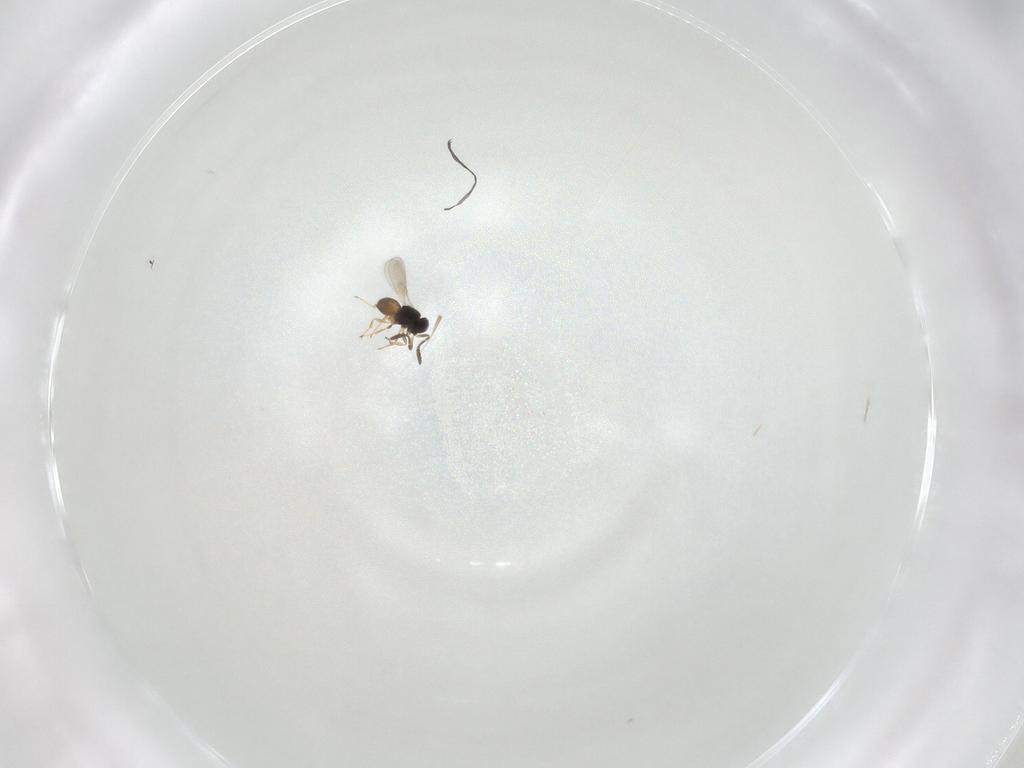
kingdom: Animalia
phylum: Arthropoda
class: Insecta
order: Hymenoptera
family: Scelionidae
